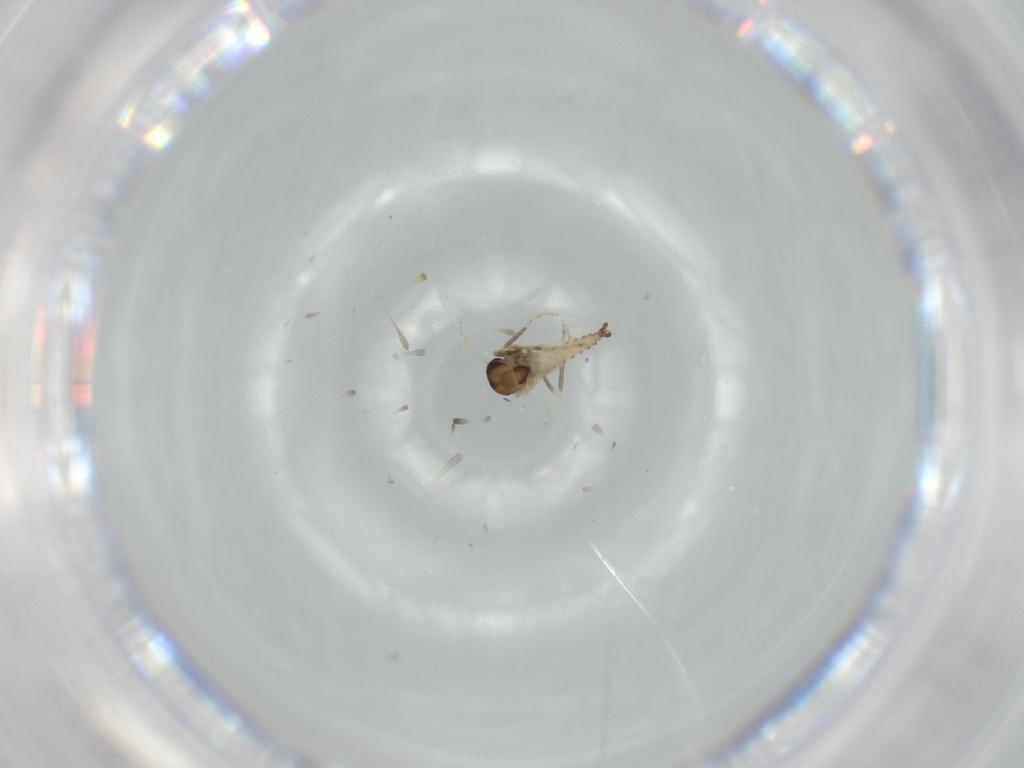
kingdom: Animalia
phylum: Arthropoda
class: Insecta
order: Diptera
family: Ceratopogonidae
